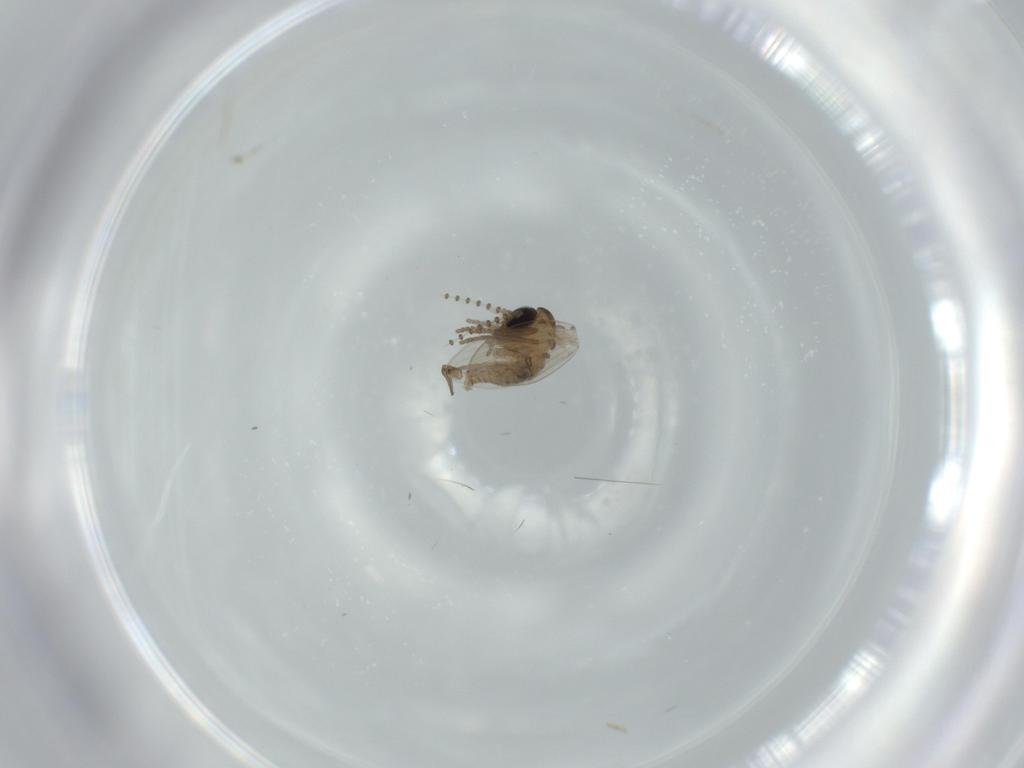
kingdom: Animalia
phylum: Arthropoda
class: Insecta
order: Diptera
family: Psychodidae
